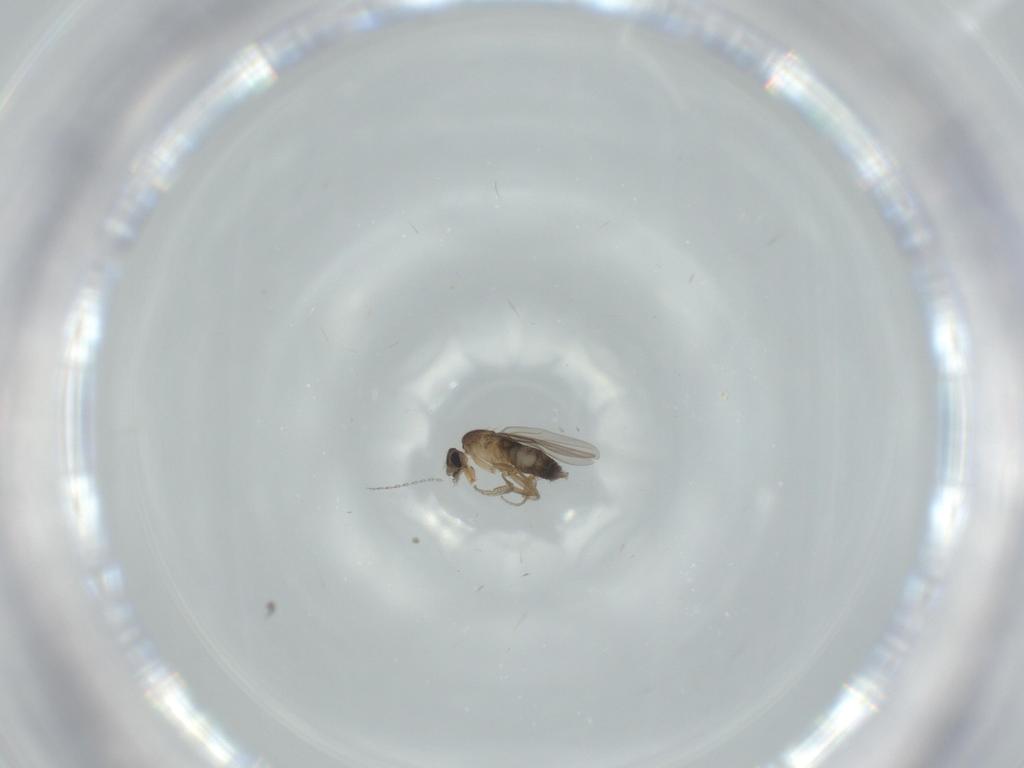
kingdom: Animalia
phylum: Arthropoda
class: Insecta
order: Diptera
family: Phoridae
